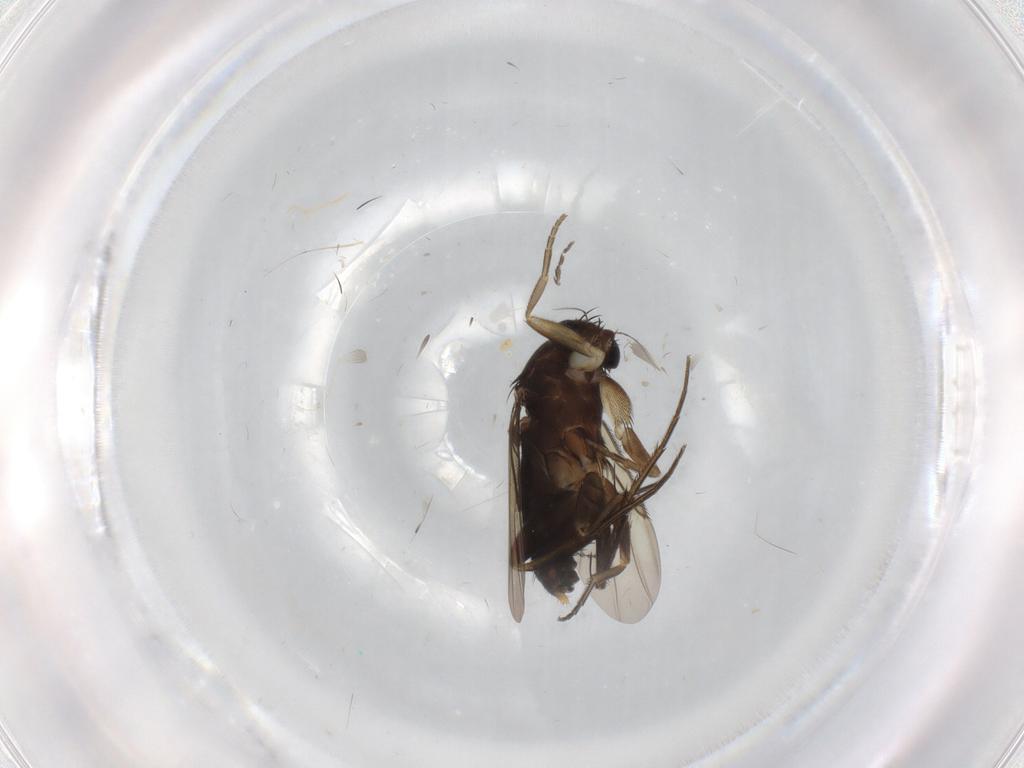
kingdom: Animalia
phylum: Arthropoda
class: Insecta
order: Diptera
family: Phoridae
